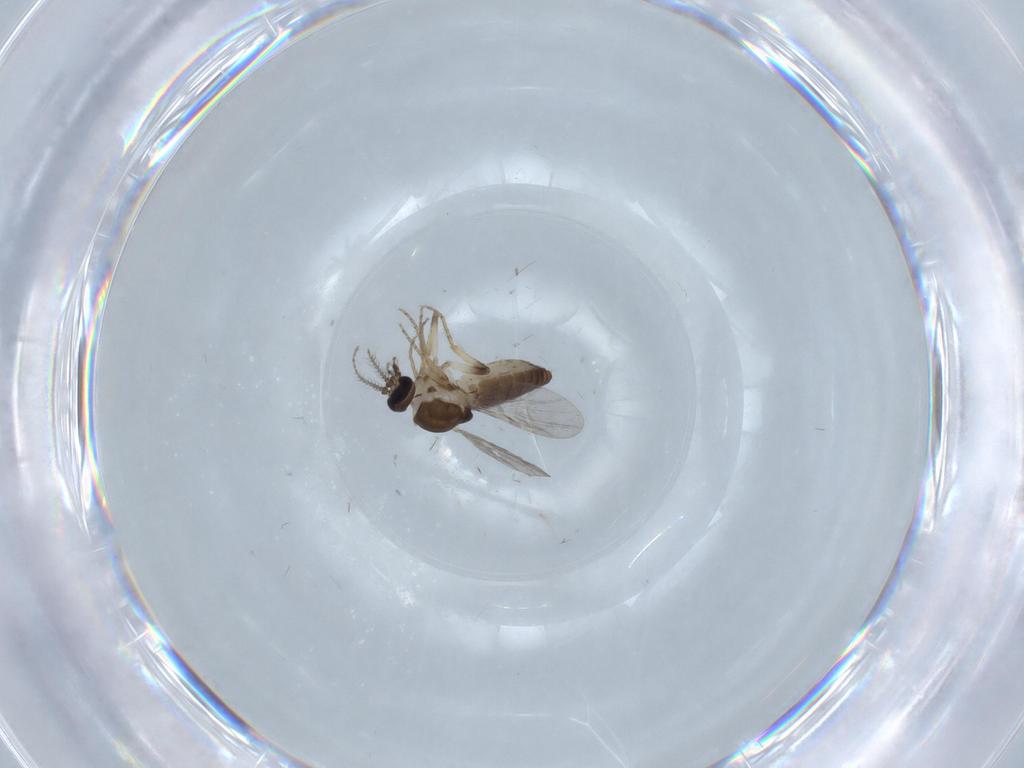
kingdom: Animalia
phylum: Arthropoda
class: Insecta
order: Diptera
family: Ceratopogonidae
